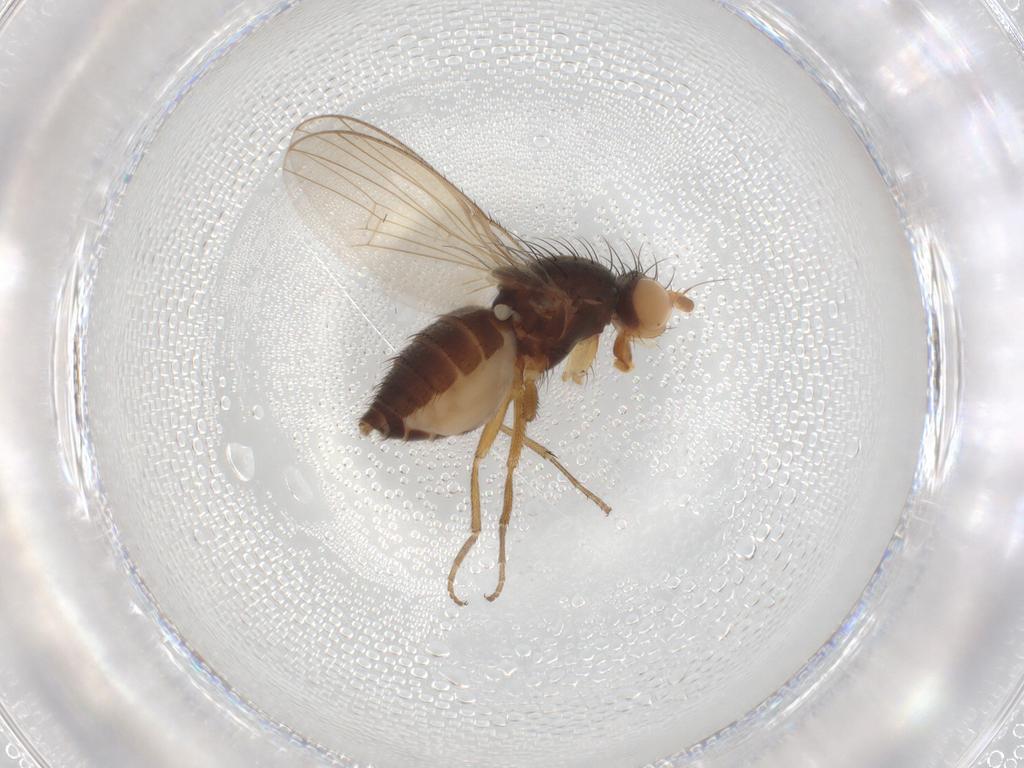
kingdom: Animalia
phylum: Arthropoda
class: Insecta
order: Diptera
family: Heleomyzidae
